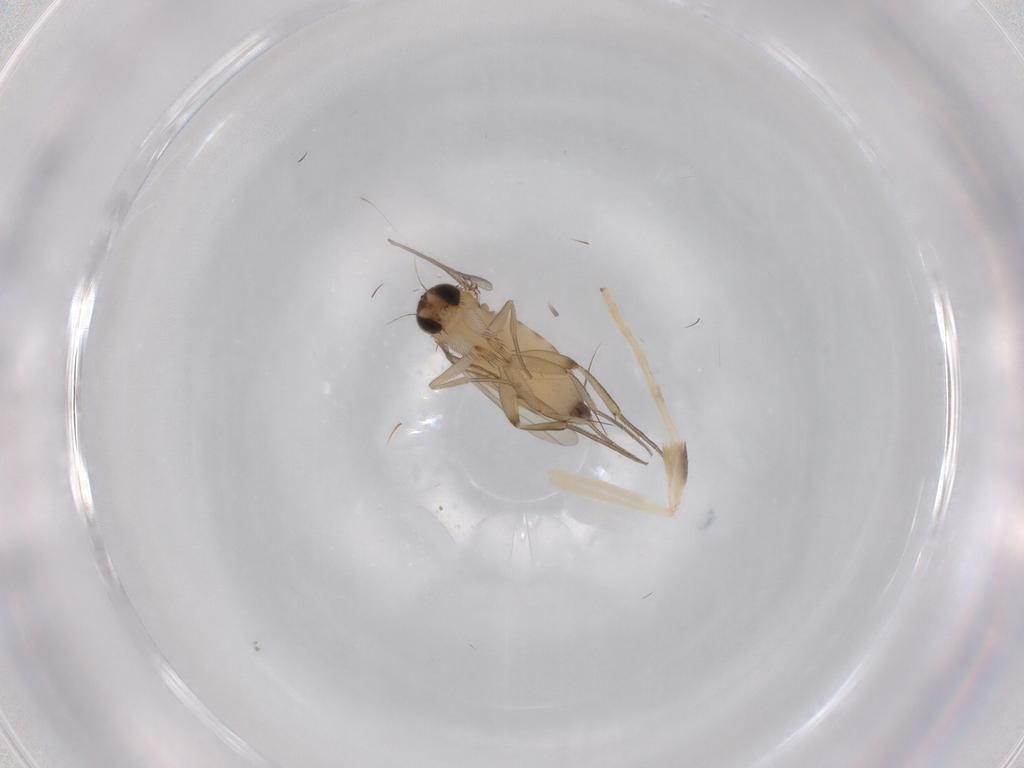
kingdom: Animalia
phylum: Arthropoda
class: Insecta
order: Diptera
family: Phoridae
